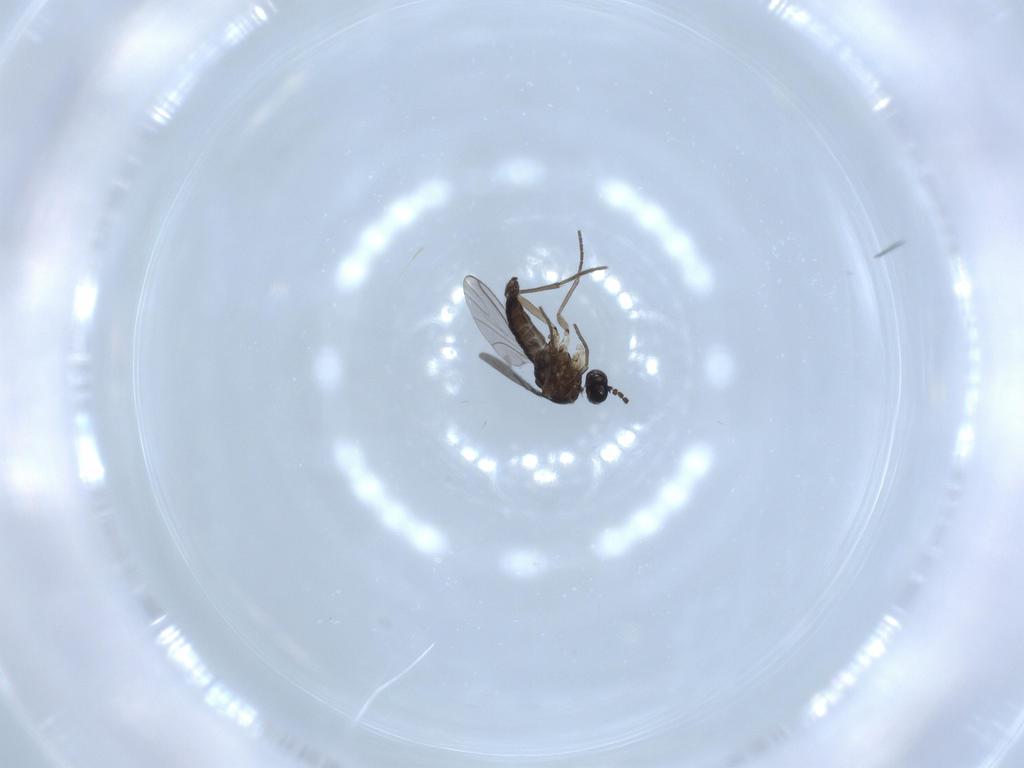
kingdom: Animalia
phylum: Arthropoda
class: Insecta
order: Diptera
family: Sciaridae
